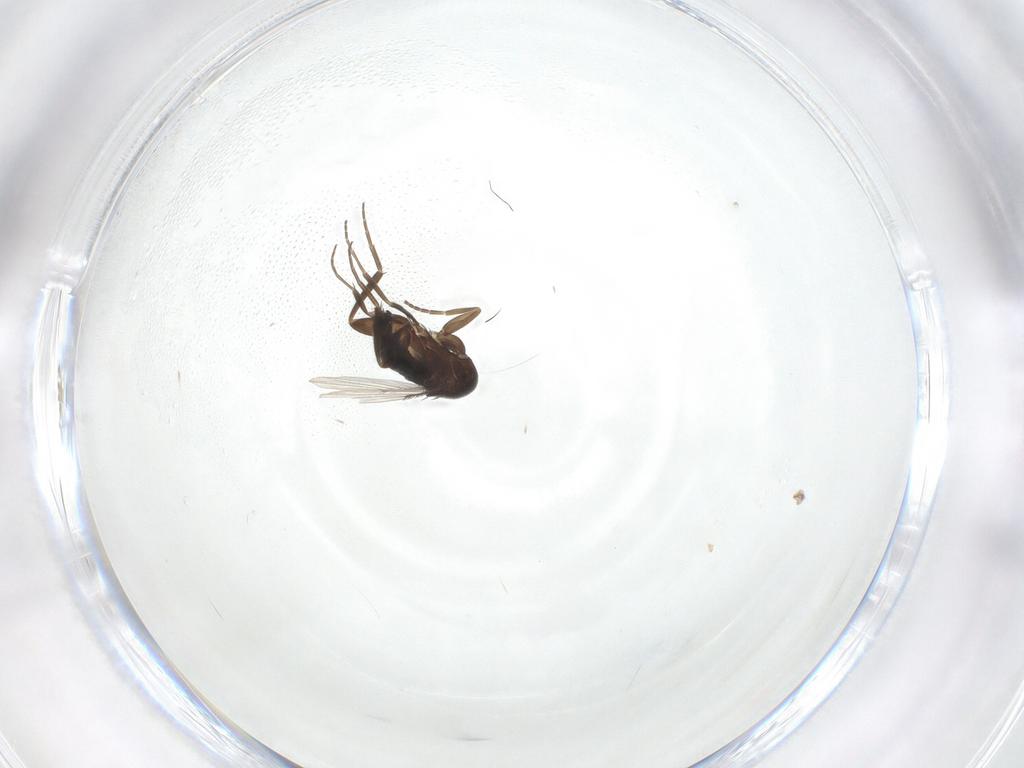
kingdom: Animalia
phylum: Arthropoda
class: Insecta
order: Diptera
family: Phoridae
